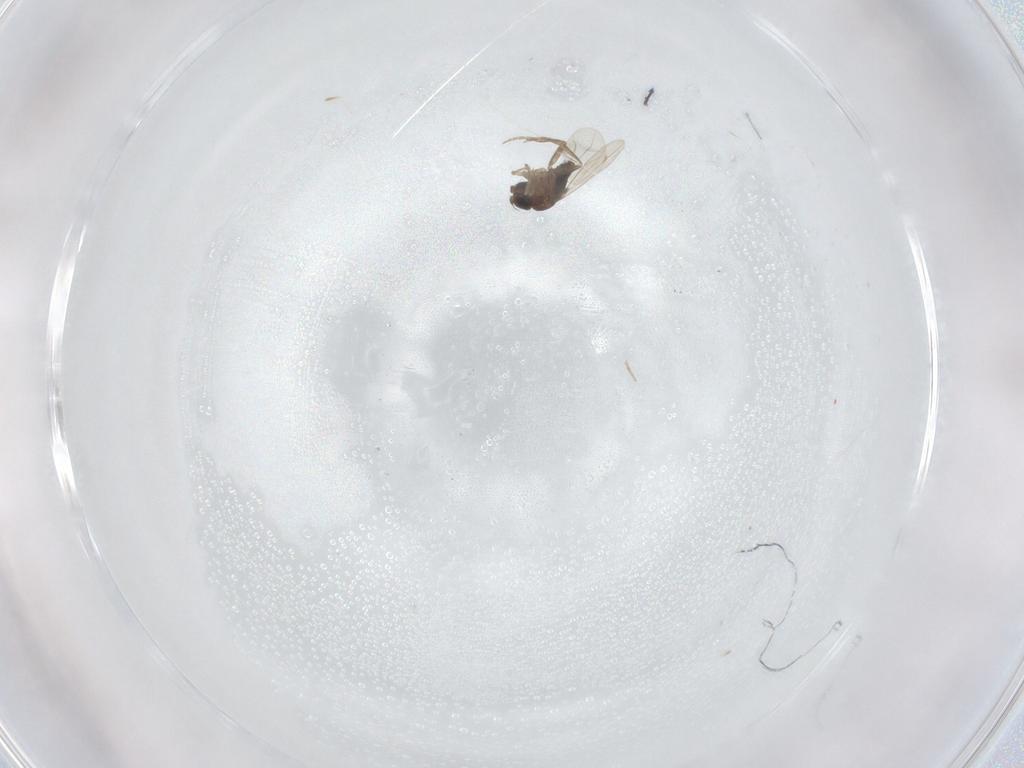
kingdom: Animalia
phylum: Arthropoda
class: Insecta
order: Diptera
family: Phoridae
